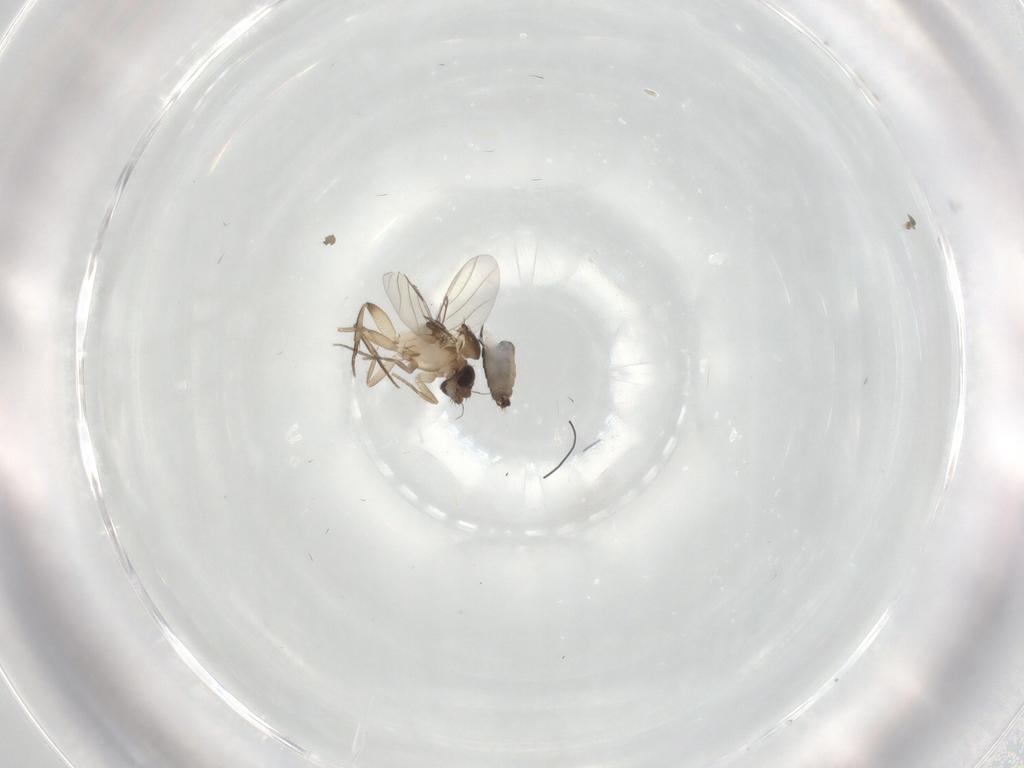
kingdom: Animalia
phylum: Arthropoda
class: Insecta
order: Diptera
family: Phoridae
